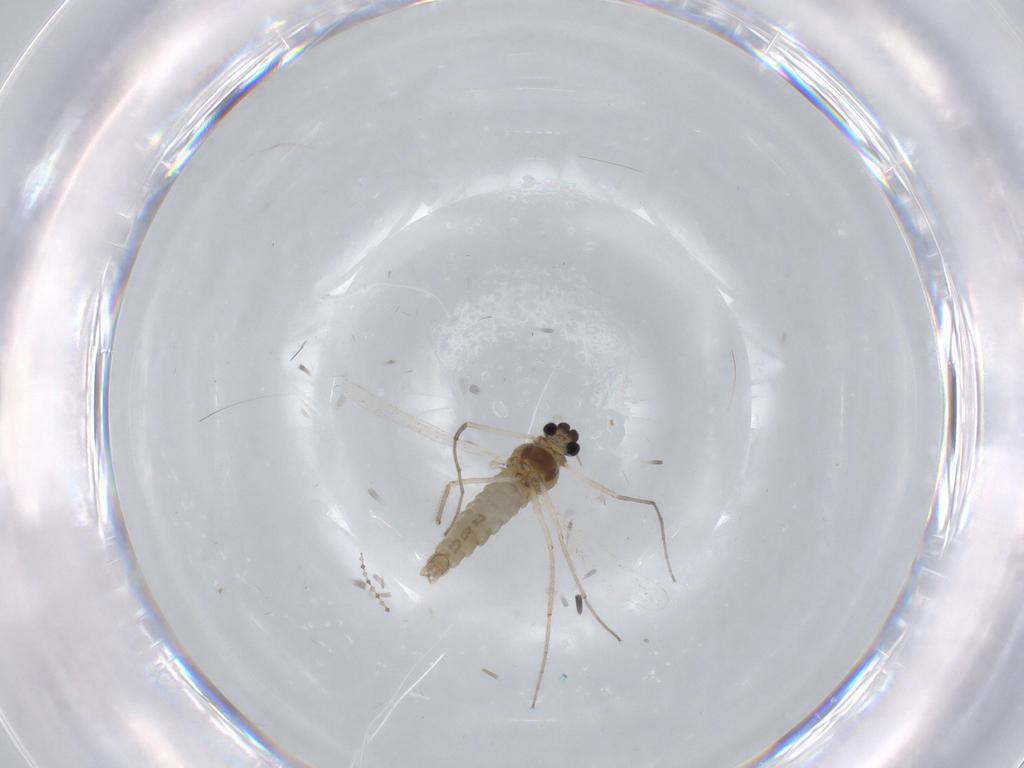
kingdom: Animalia
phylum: Arthropoda
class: Insecta
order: Diptera
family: Chironomidae
